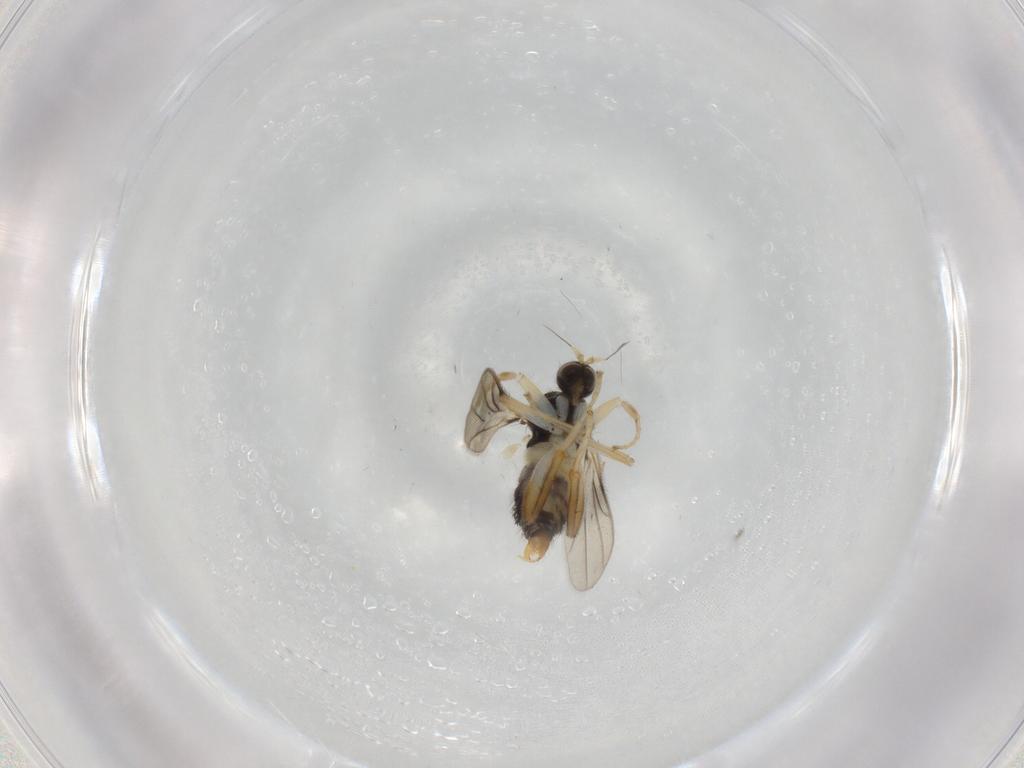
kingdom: Animalia
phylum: Arthropoda
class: Insecta
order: Diptera
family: Hybotidae
